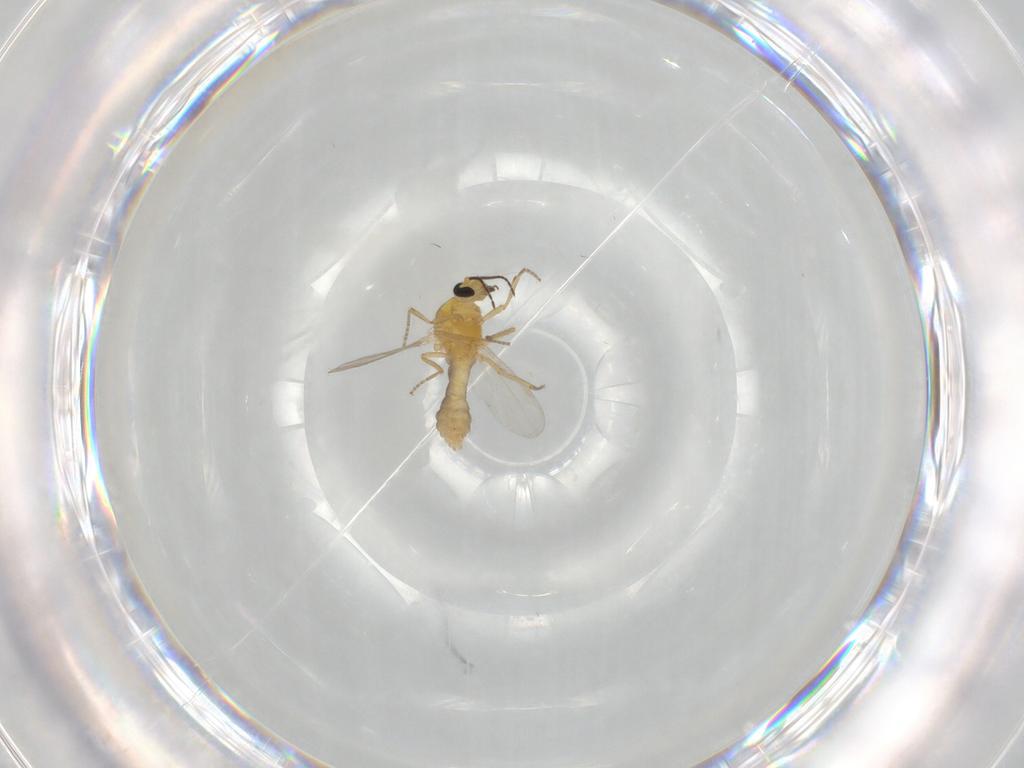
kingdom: Animalia
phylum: Arthropoda
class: Insecta
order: Diptera
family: Ceratopogonidae
